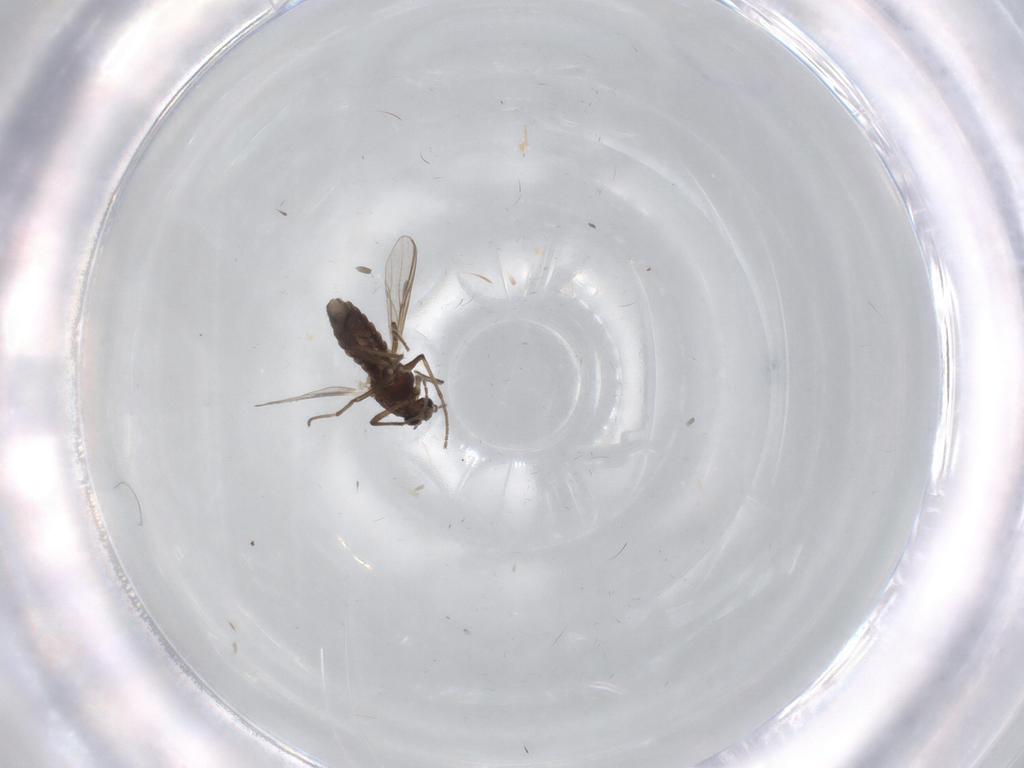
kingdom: Animalia
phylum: Arthropoda
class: Insecta
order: Diptera
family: Chironomidae
